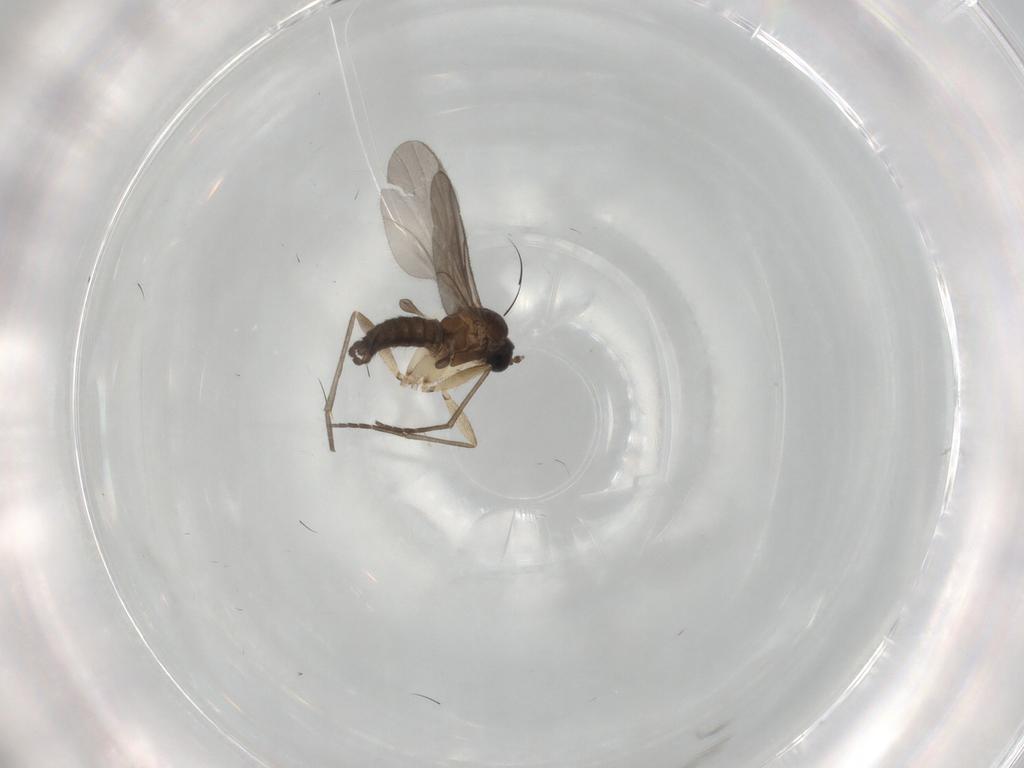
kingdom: Animalia
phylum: Arthropoda
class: Insecta
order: Diptera
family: Sciaridae
